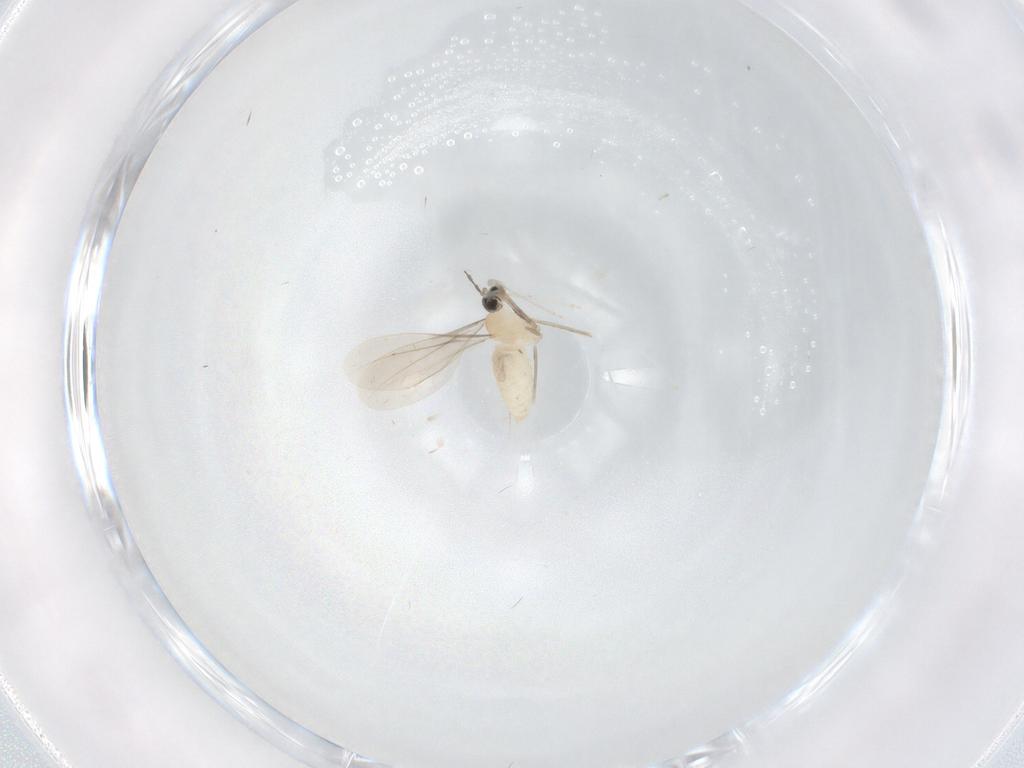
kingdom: Animalia
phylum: Arthropoda
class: Insecta
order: Diptera
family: Cecidomyiidae
